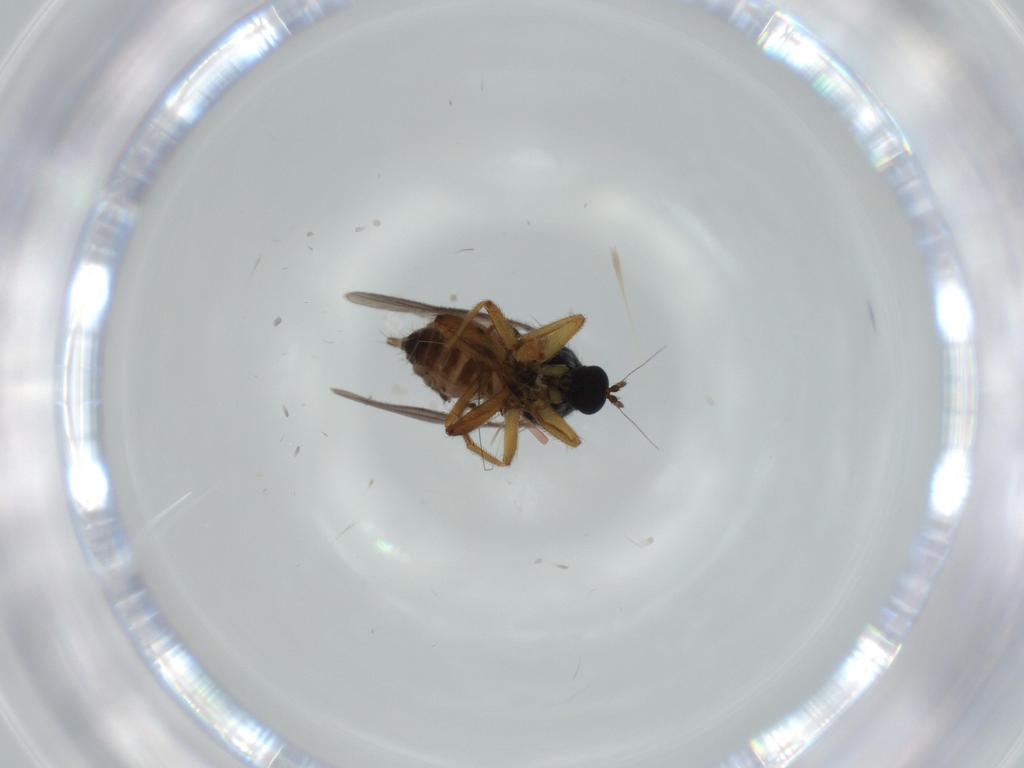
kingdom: Animalia
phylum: Arthropoda
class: Insecta
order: Diptera
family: Hybotidae
